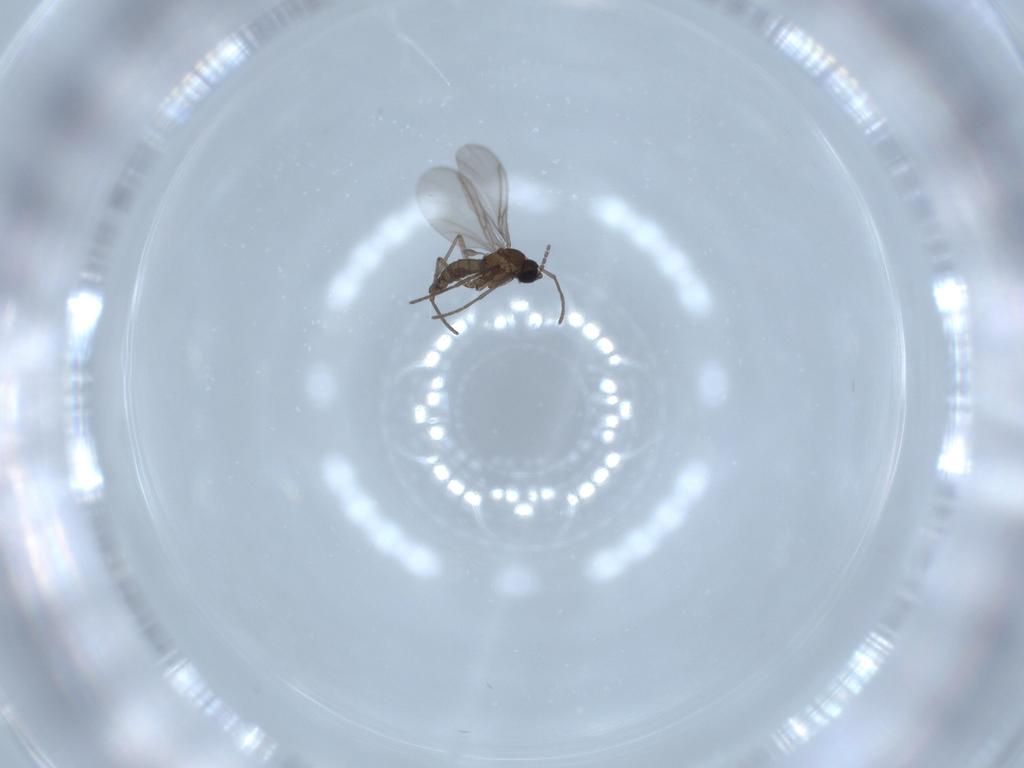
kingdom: Animalia
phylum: Arthropoda
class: Insecta
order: Diptera
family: Sciaridae
